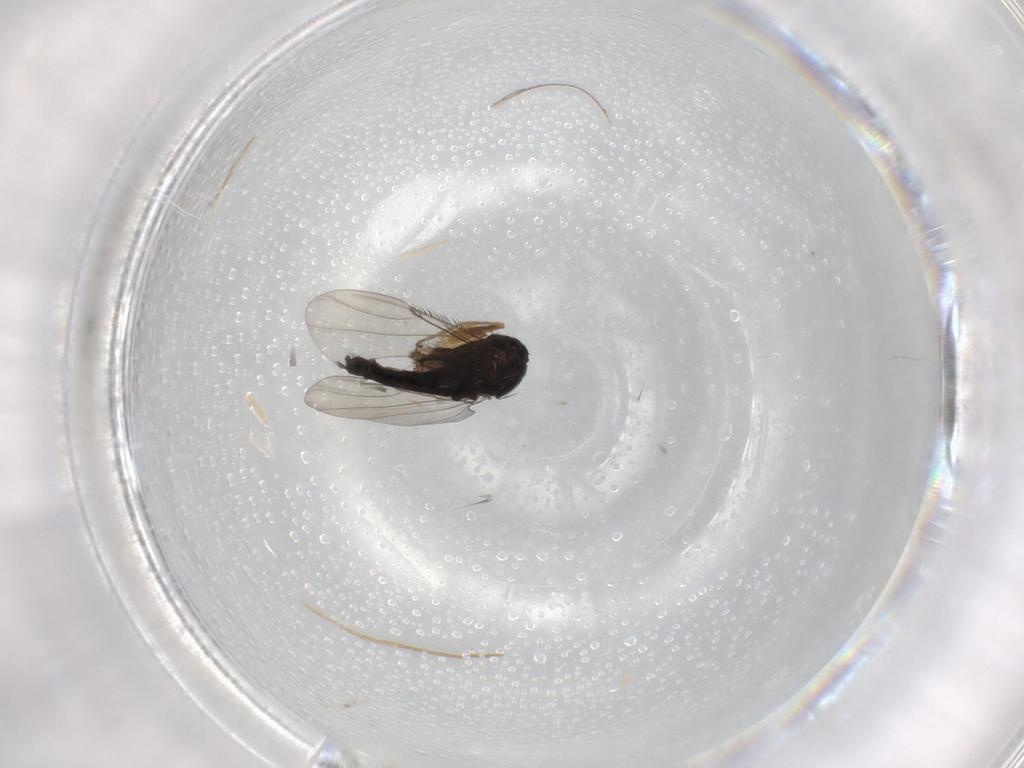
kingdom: Animalia
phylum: Arthropoda
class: Insecta
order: Diptera
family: Phoridae
